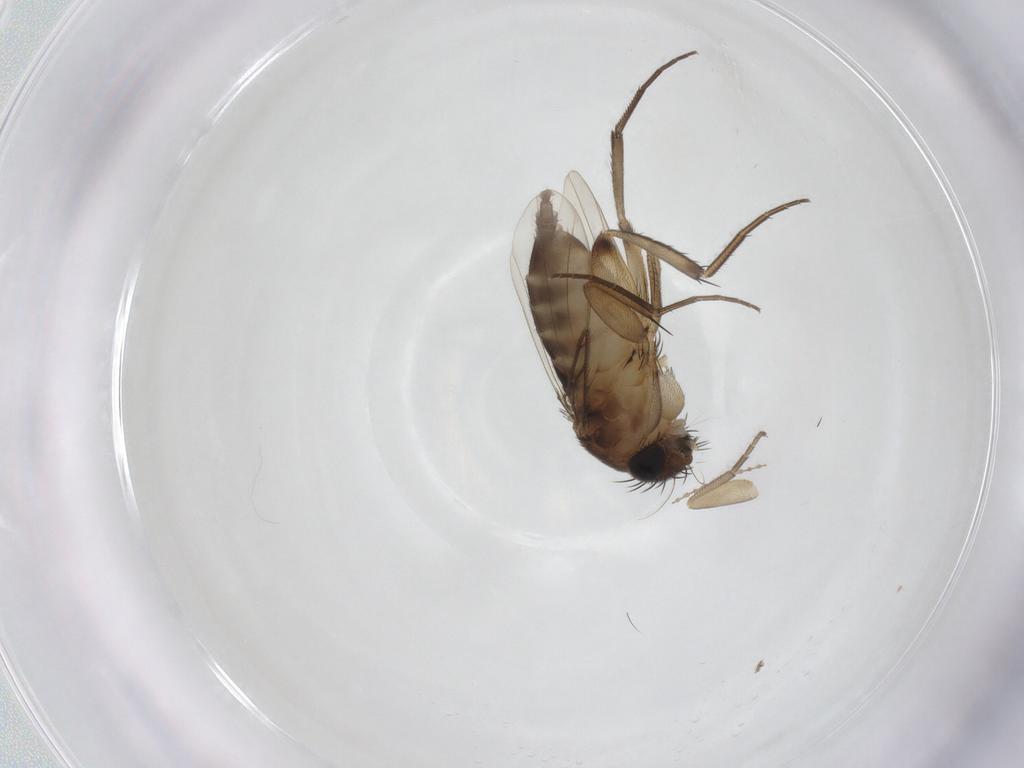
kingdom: Animalia
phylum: Arthropoda
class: Insecta
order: Diptera
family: Phoridae
